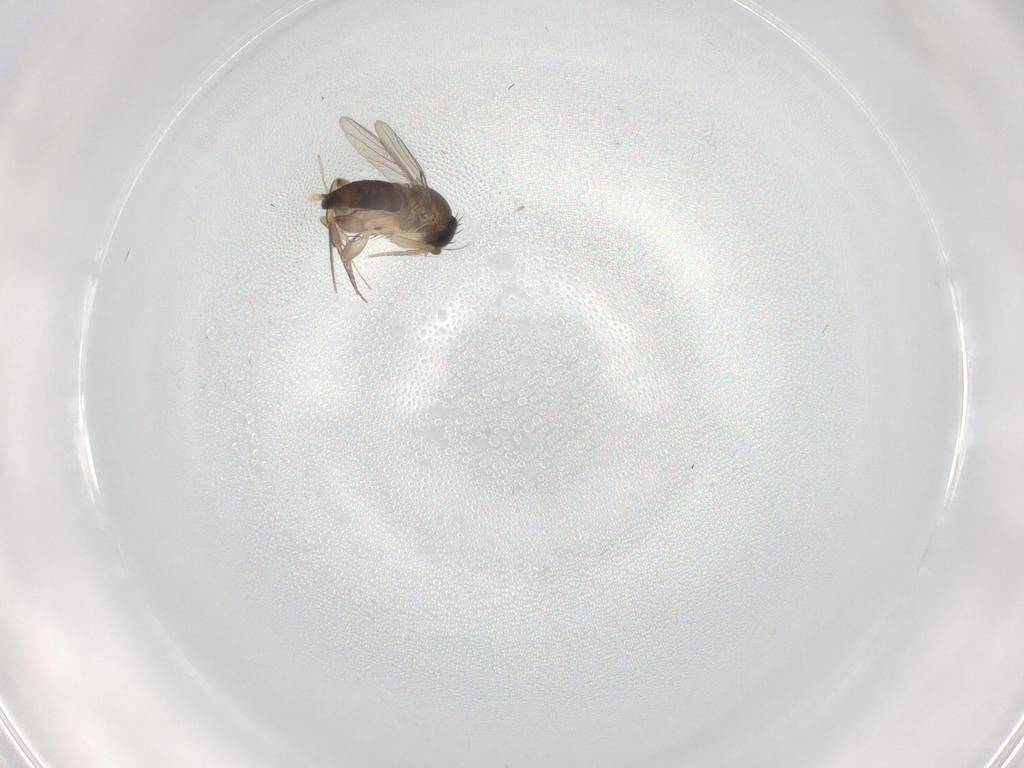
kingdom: Animalia
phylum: Arthropoda
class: Insecta
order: Diptera
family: Phoridae
